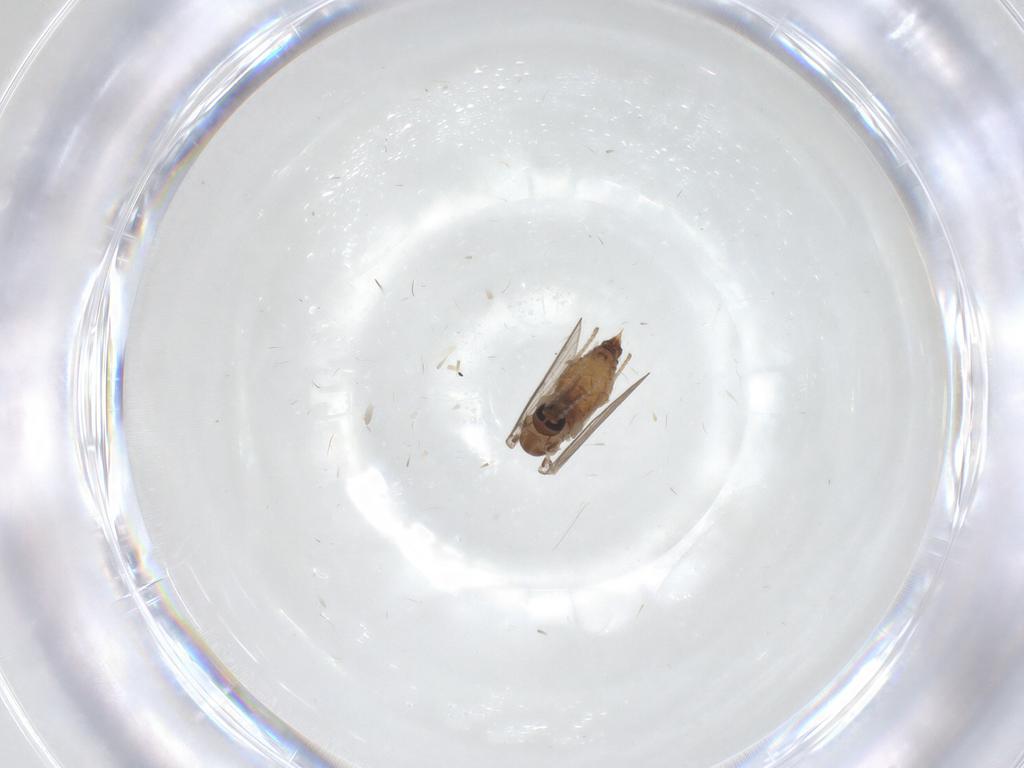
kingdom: Animalia
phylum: Arthropoda
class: Insecta
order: Diptera
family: Psychodidae
